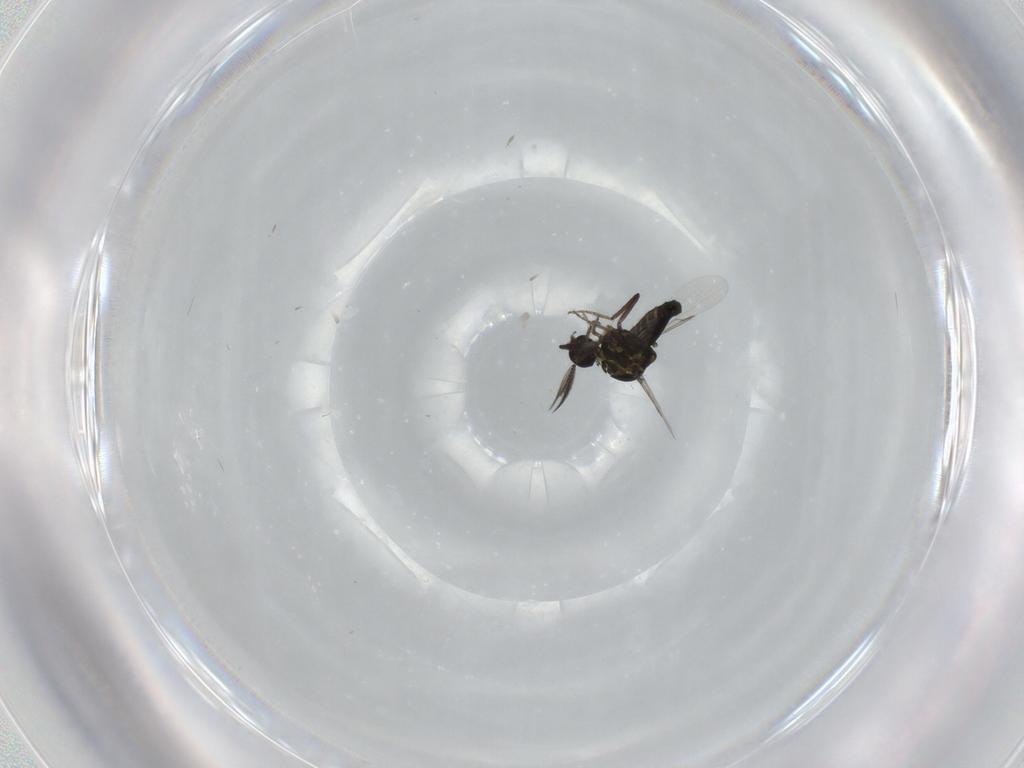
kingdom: Animalia
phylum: Arthropoda
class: Insecta
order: Diptera
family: Ceratopogonidae
